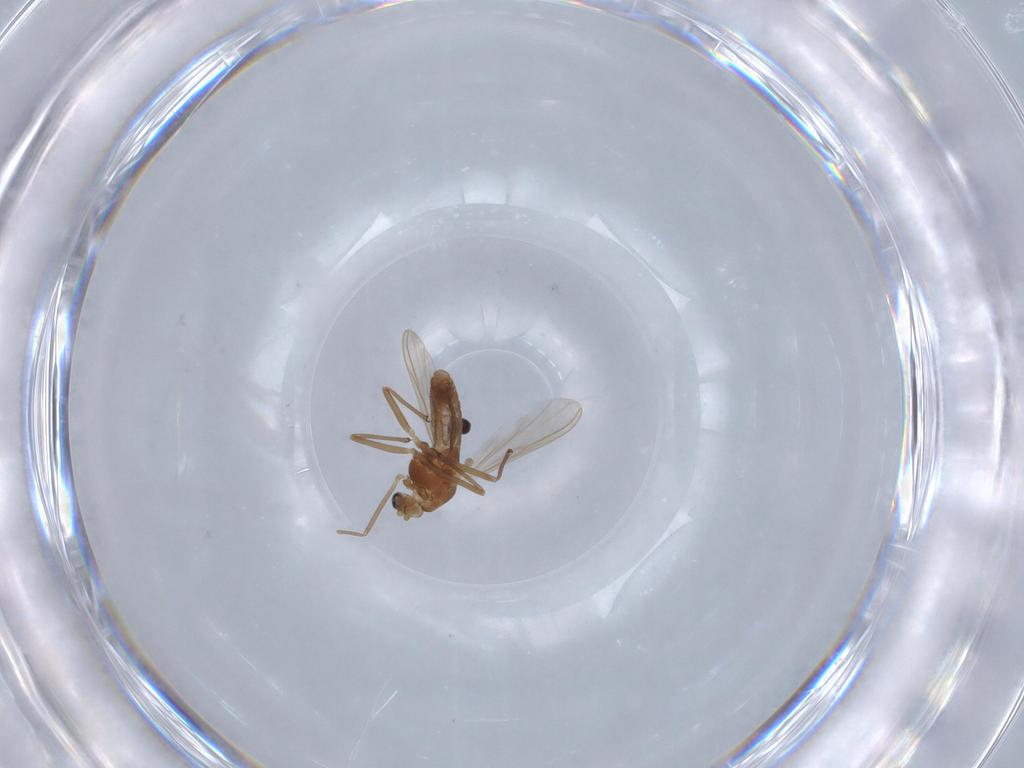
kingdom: Animalia
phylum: Arthropoda
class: Insecta
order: Diptera
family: Chironomidae
